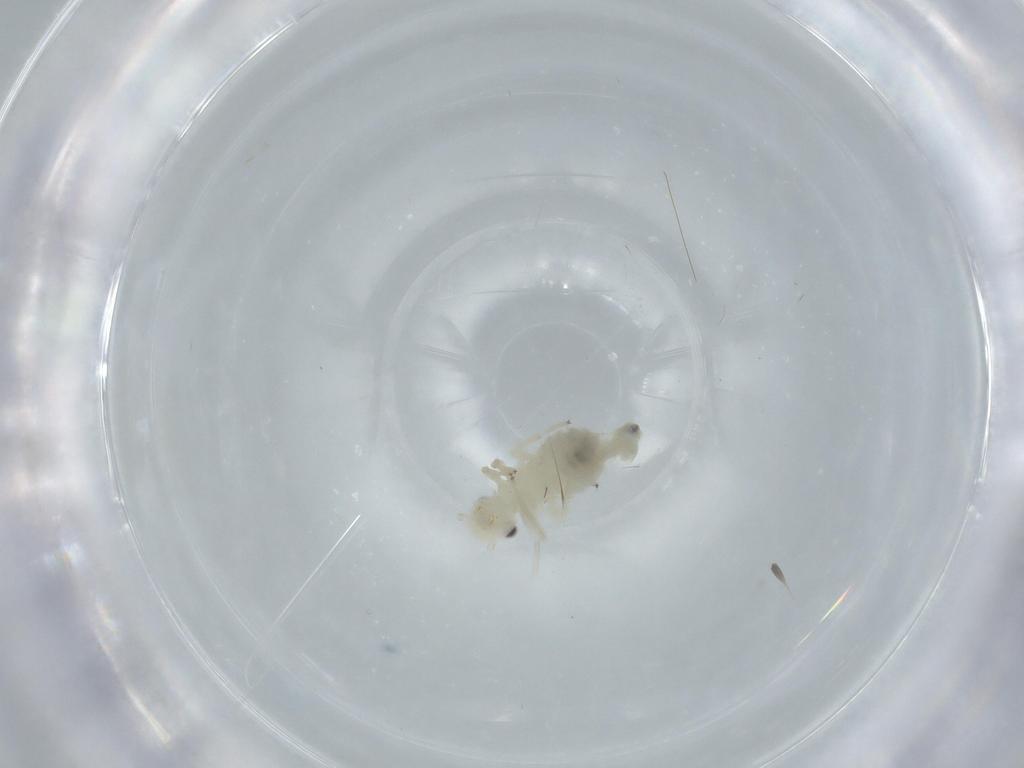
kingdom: Animalia
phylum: Arthropoda
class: Insecta
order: Psocodea
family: Caeciliusidae
